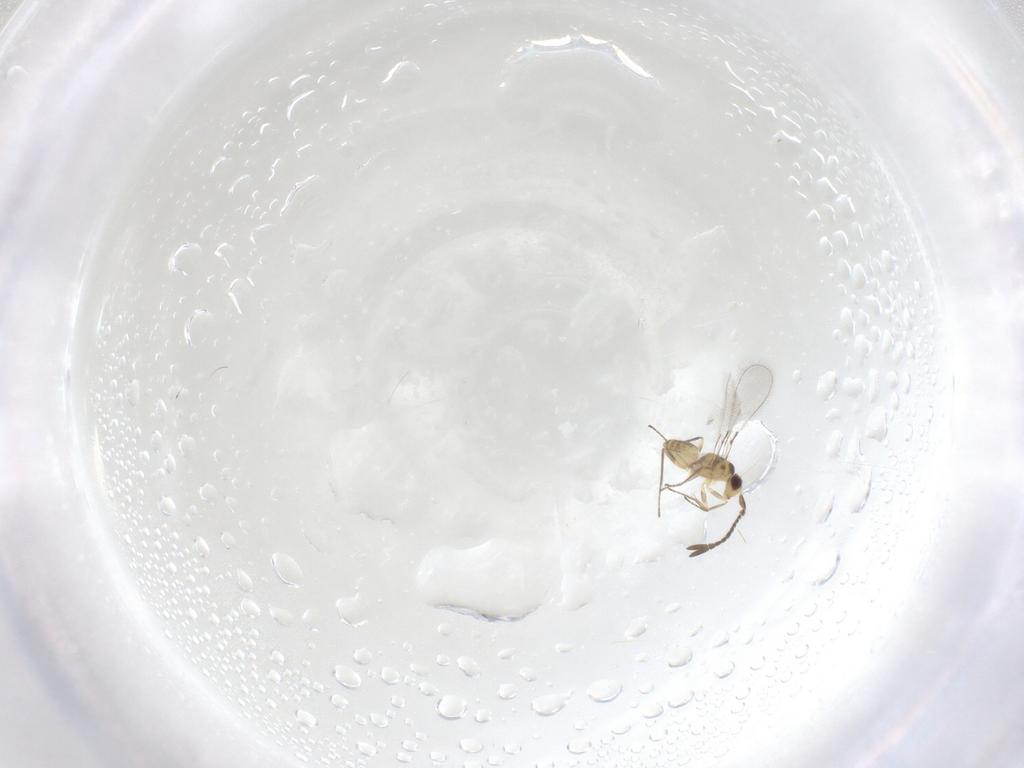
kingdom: Animalia
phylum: Arthropoda
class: Insecta
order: Hymenoptera
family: Mymaridae
